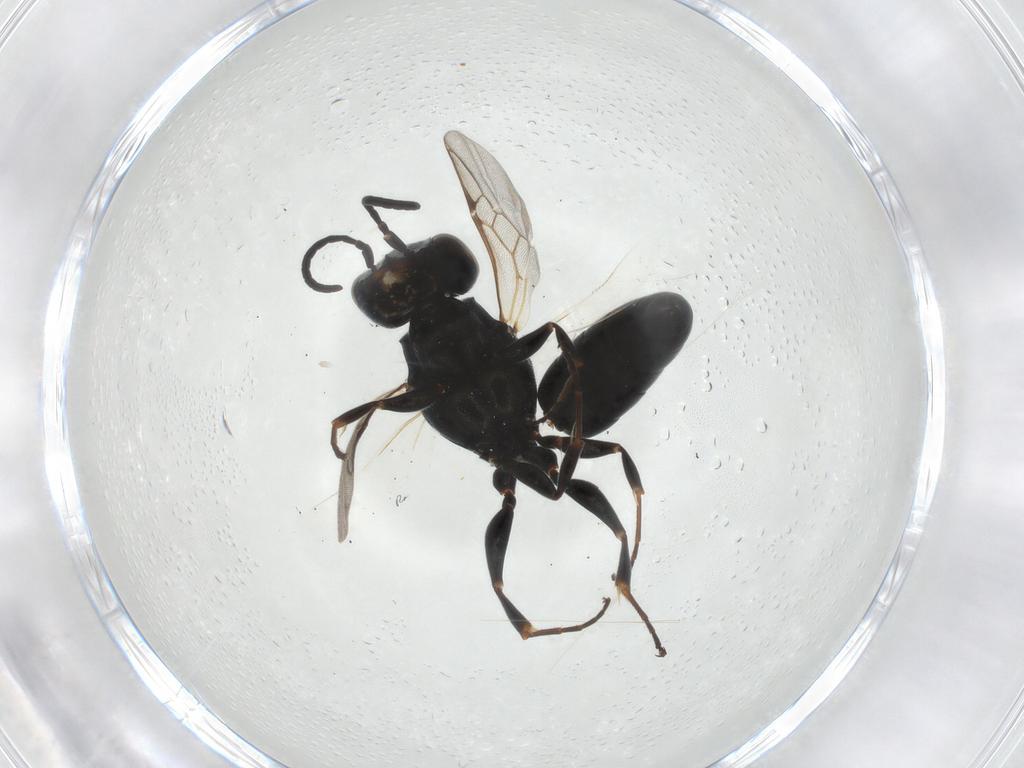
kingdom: Animalia
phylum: Arthropoda
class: Insecta
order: Hymenoptera
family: Crabronidae
